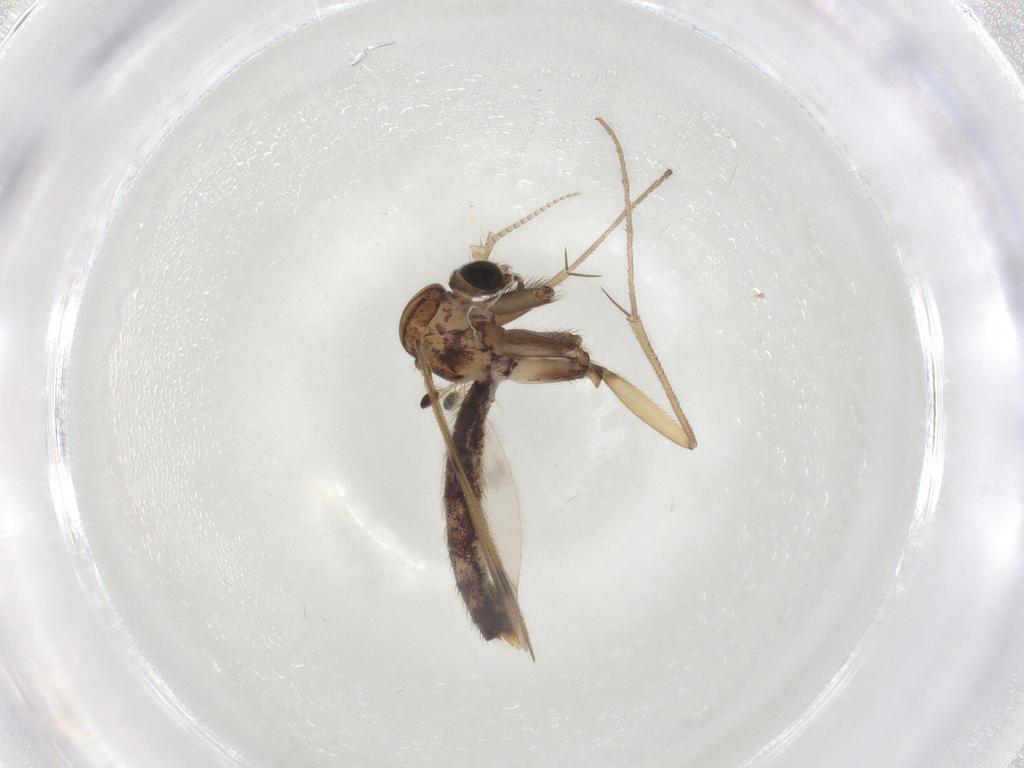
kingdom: Animalia
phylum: Arthropoda
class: Insecta
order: Diptera
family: Cecidomyiidae
